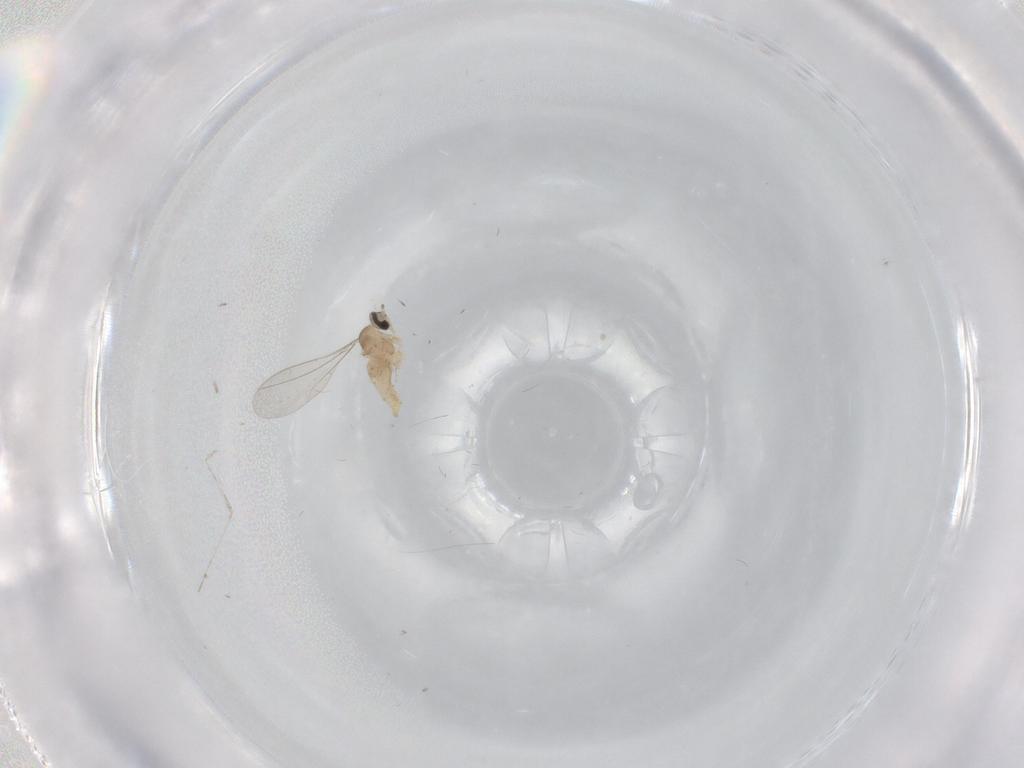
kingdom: Animalia
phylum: Arthropoda
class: Insecta
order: Diptera
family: Cecidomyiidae
